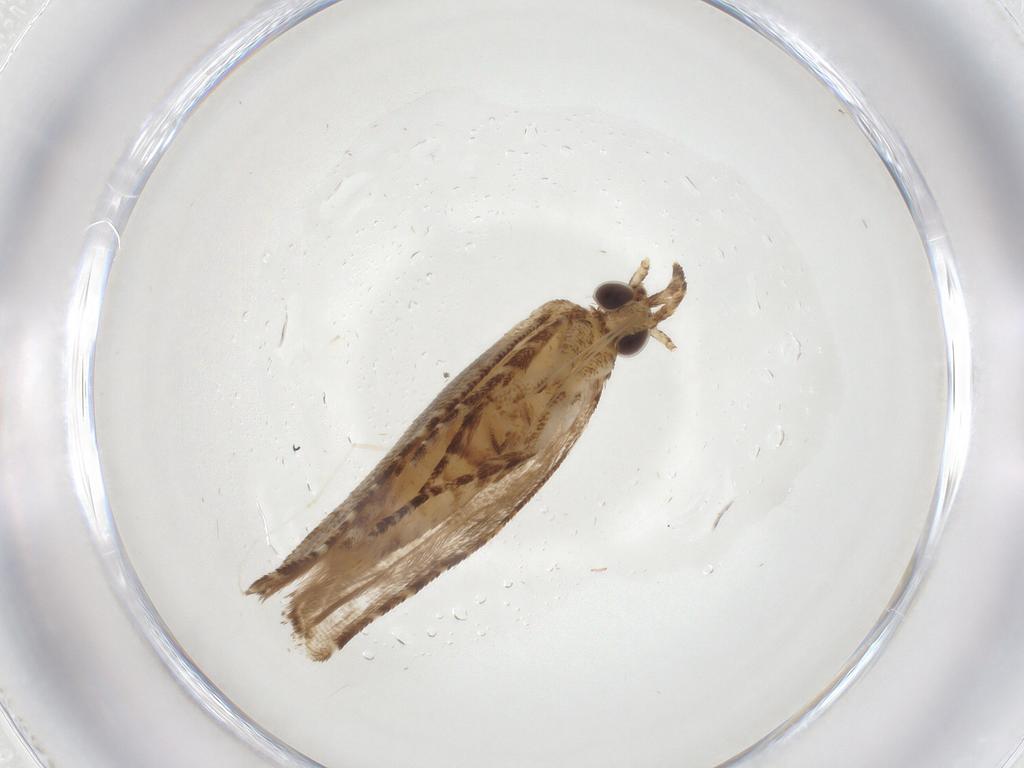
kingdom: Animalia
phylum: Arthropoda
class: Insecta
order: Lepidoptera
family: Heliodinidae
